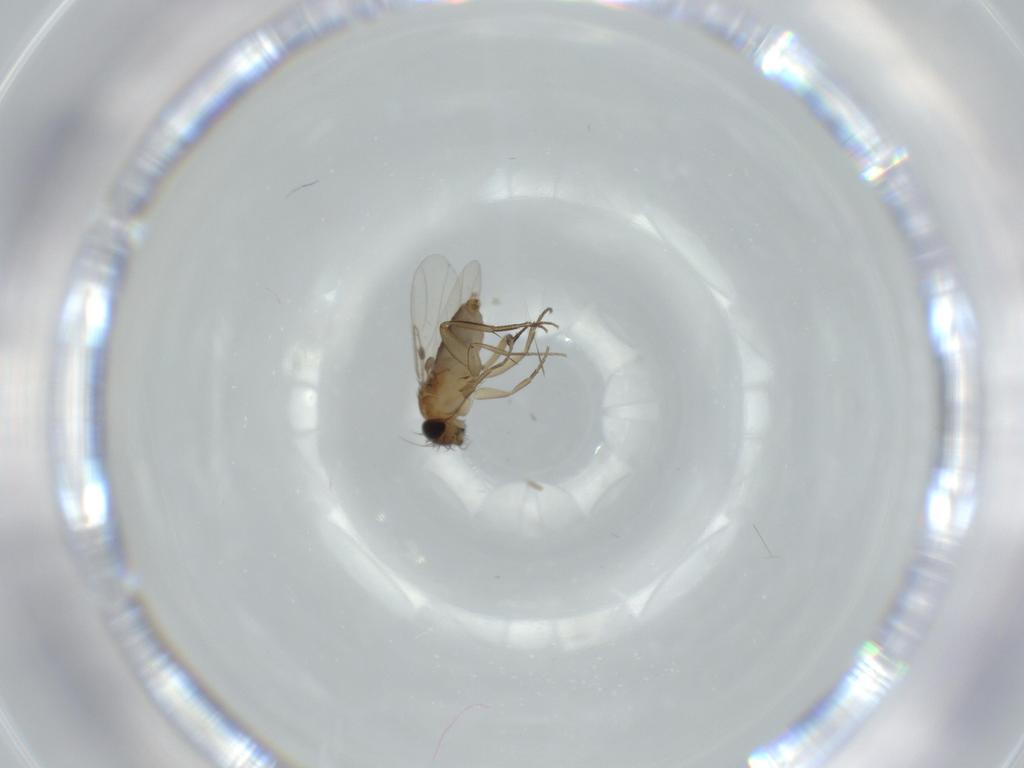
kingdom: Animalia
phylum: Arthropoda
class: Insecta
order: Diptera
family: Phoridae
